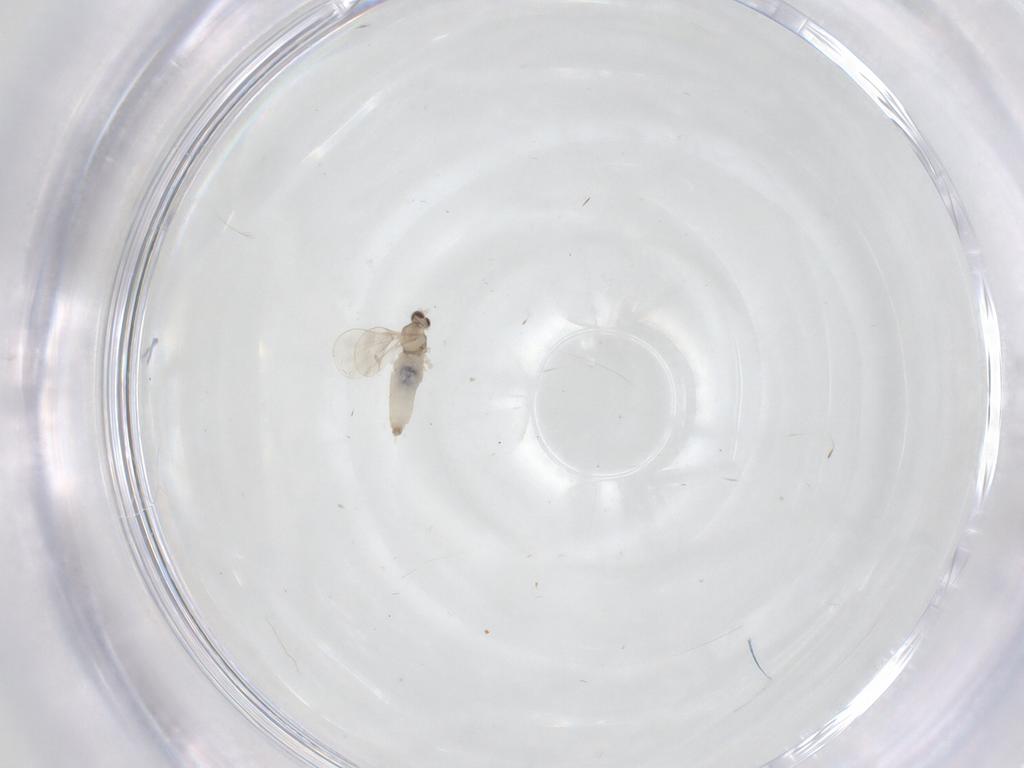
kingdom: Animalia
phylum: Arthropoda
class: Insecta
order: Diptera
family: Cecidomyiidae
